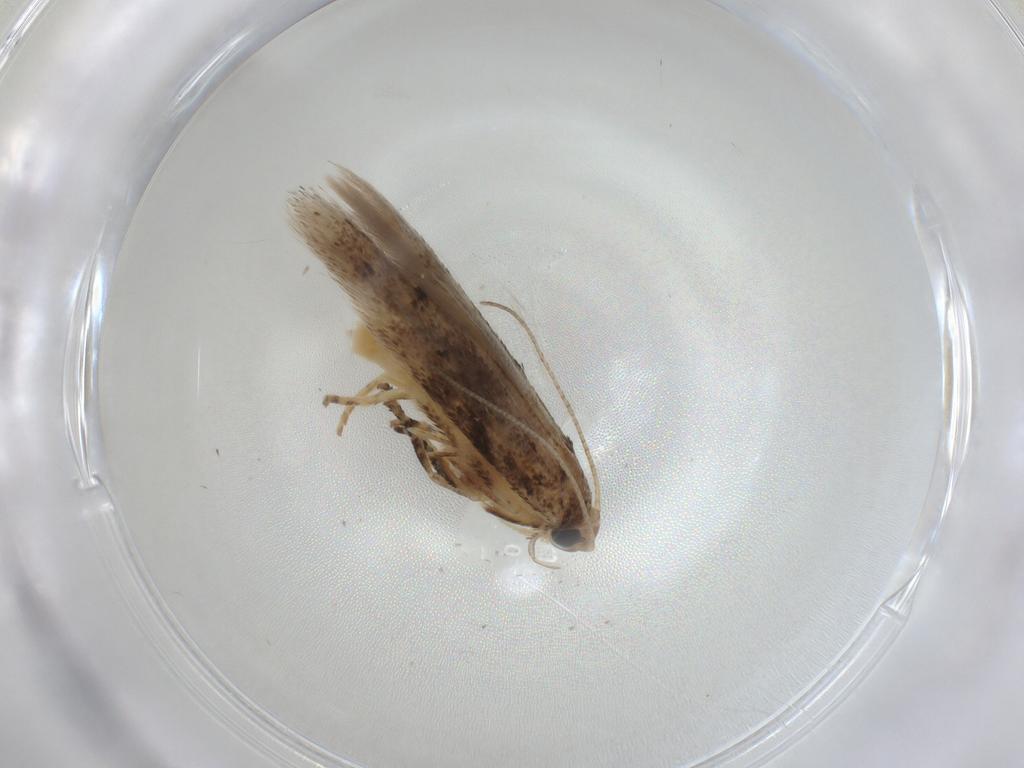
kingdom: Animalia
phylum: Arthropoda
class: Insecta
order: Lepidoptera
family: Gelechiidae
